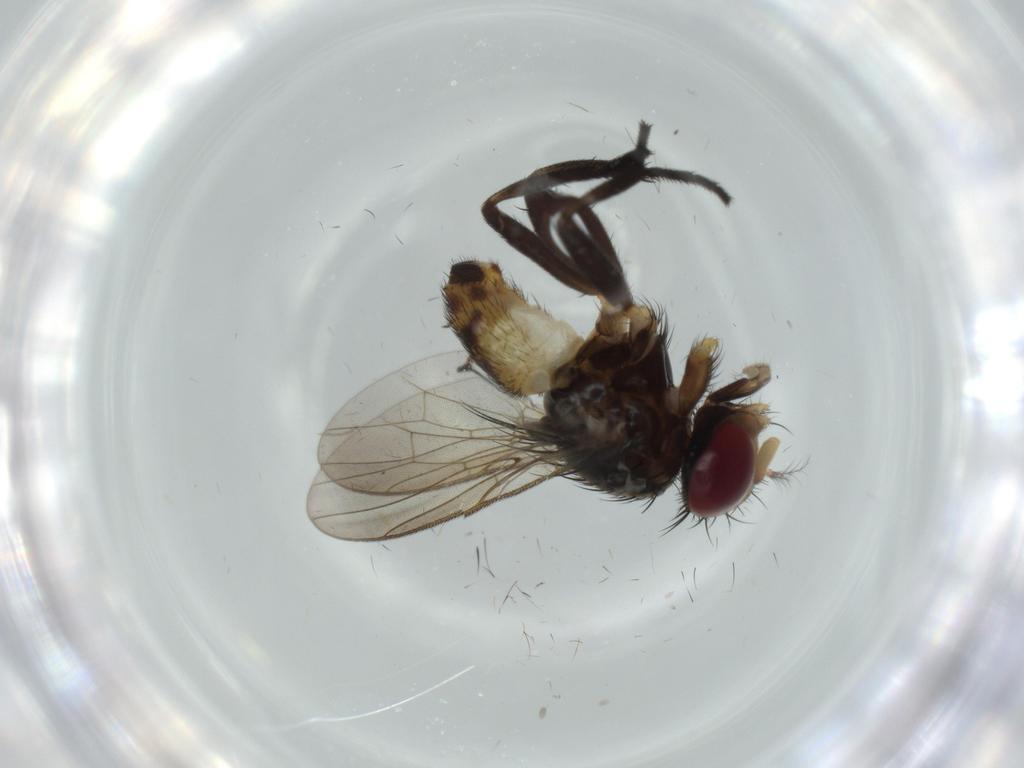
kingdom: Animalia
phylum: Arthropoda
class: Insecta
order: Diptera
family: Anthomyiidae
